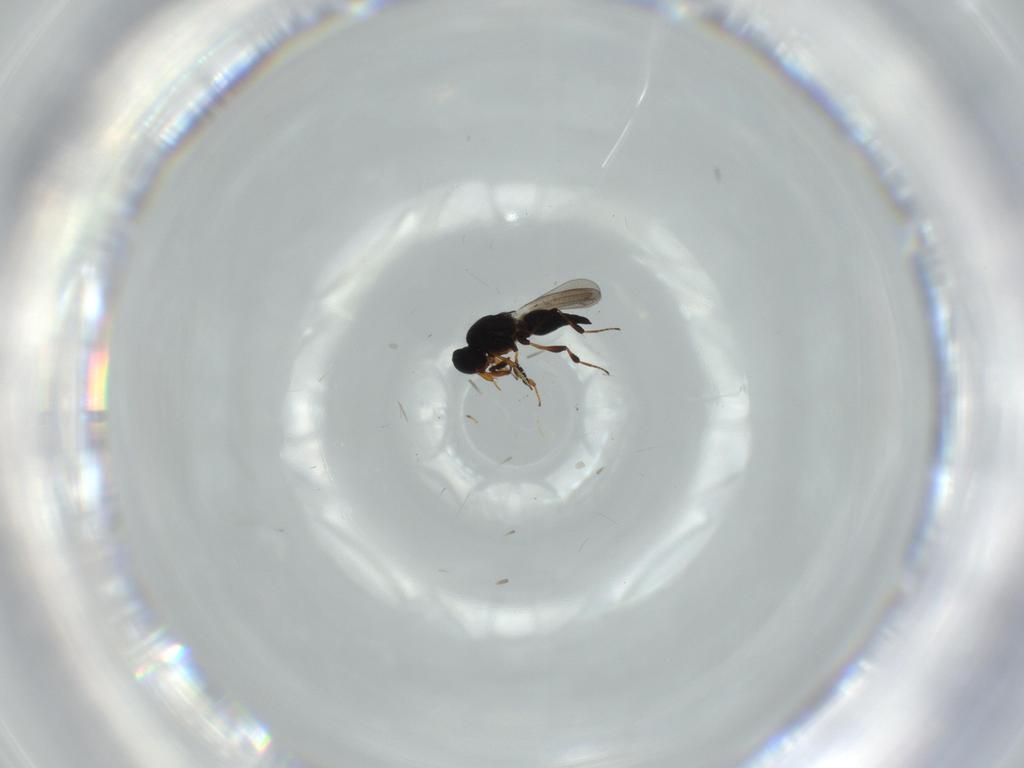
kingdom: Animalia
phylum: Arthropoda
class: Insecta
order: Hymenoptera
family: Platygastridae
